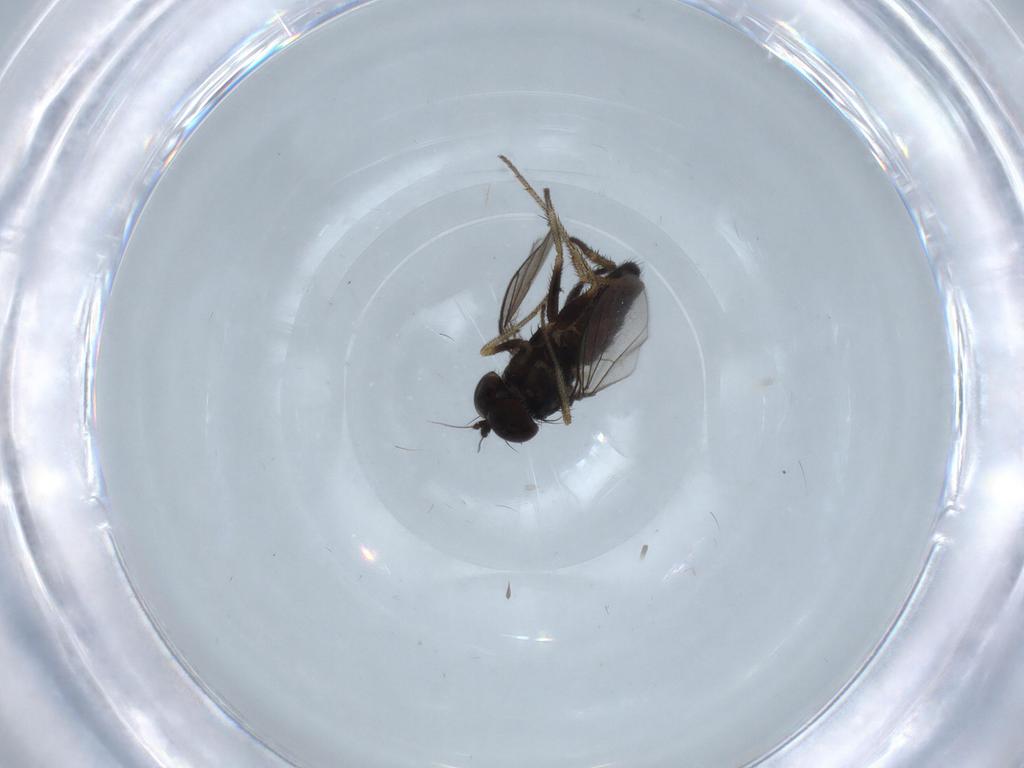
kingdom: Animalia
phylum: Arthropoda
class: Insecta
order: Diptera
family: Dolichopodidae
